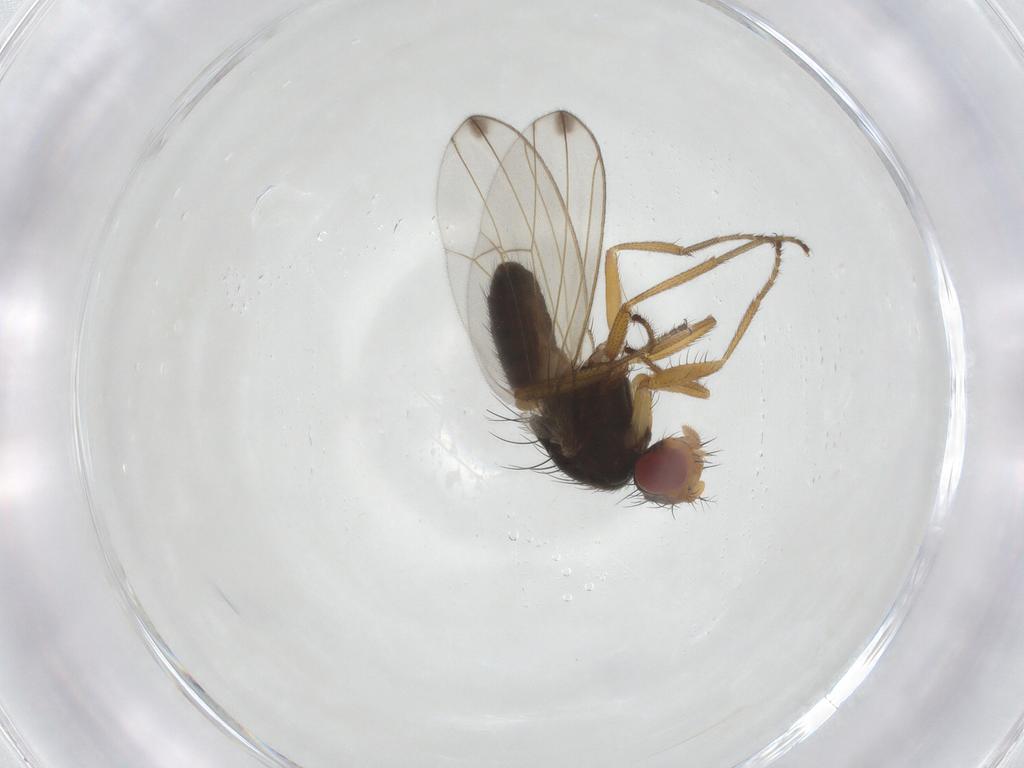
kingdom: Animalia
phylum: Arthropoda
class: Insecta
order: Diptera
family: Drosophilidae
